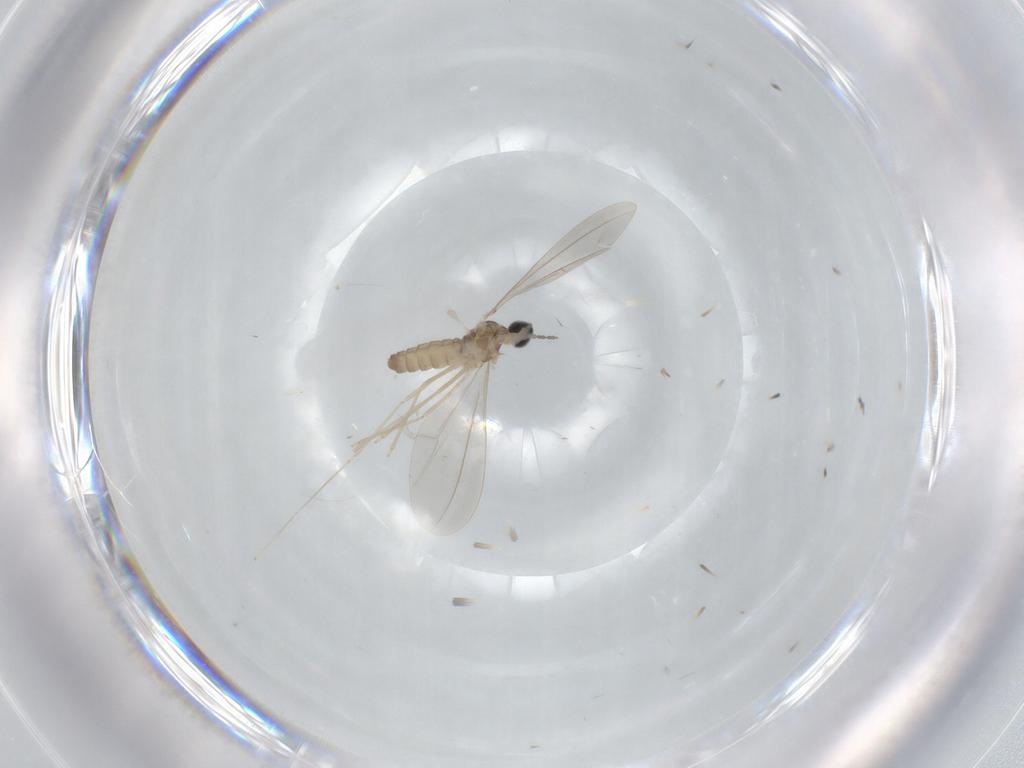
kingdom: Animalia
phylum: Arthropoda
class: Insecta
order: Diptera
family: Cecidomyiidae
